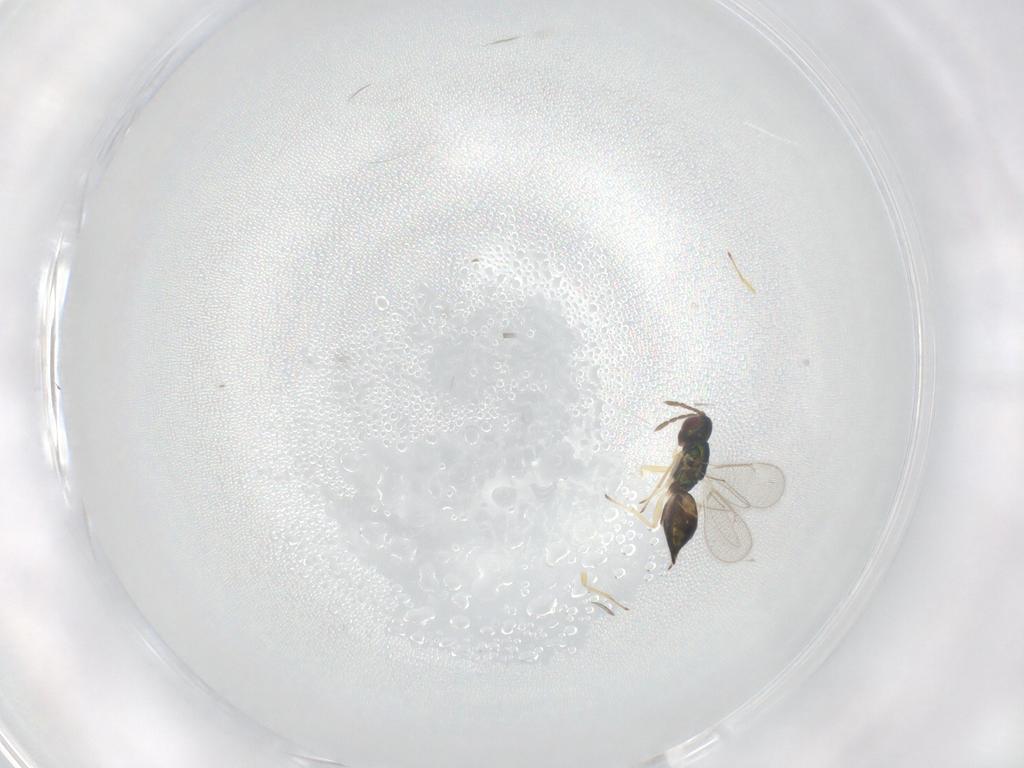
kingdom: Animalia
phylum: Arthropoda
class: Insecta
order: Hymenoptera
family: Eulophidae
